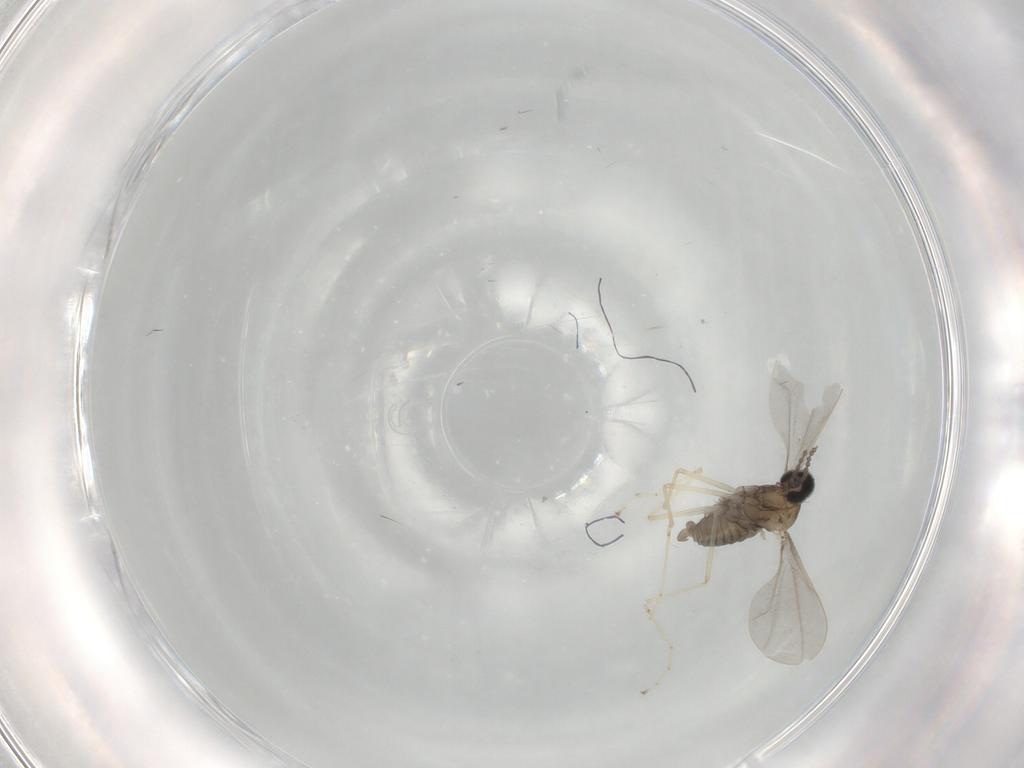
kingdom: Animalia
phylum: Arthropoda
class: Insecta
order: Diptera
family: Cecidomyiidae
